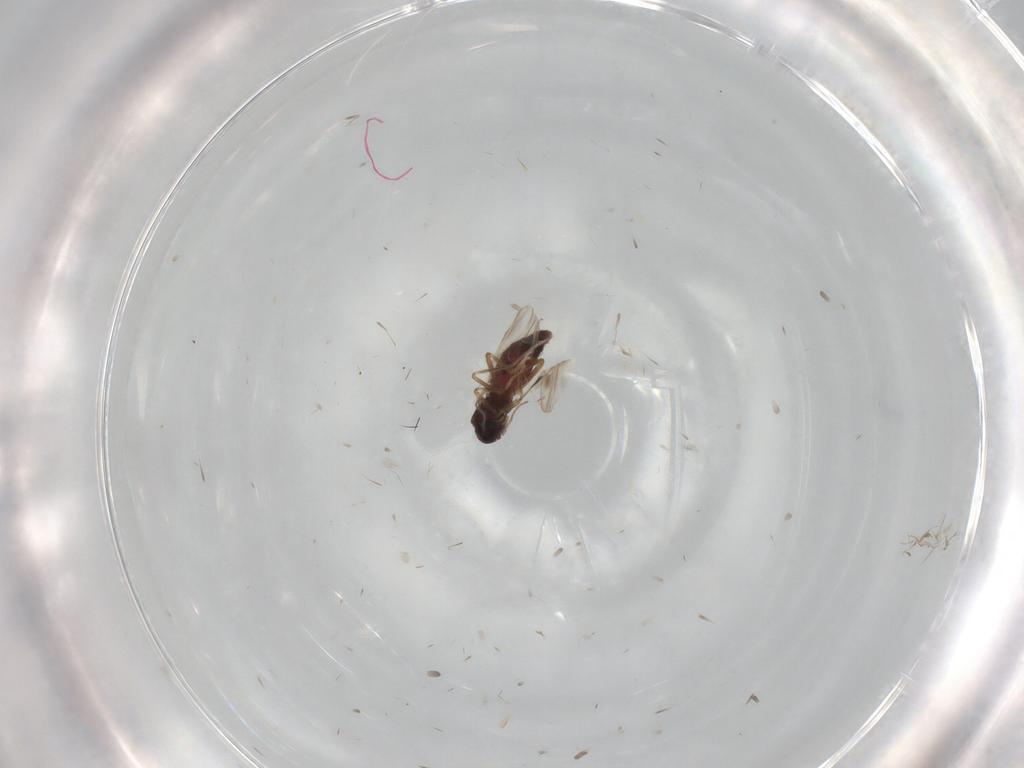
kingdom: Animalia
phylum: Arthropoda
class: Insecta
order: Diptera
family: Ceratopogonidae
